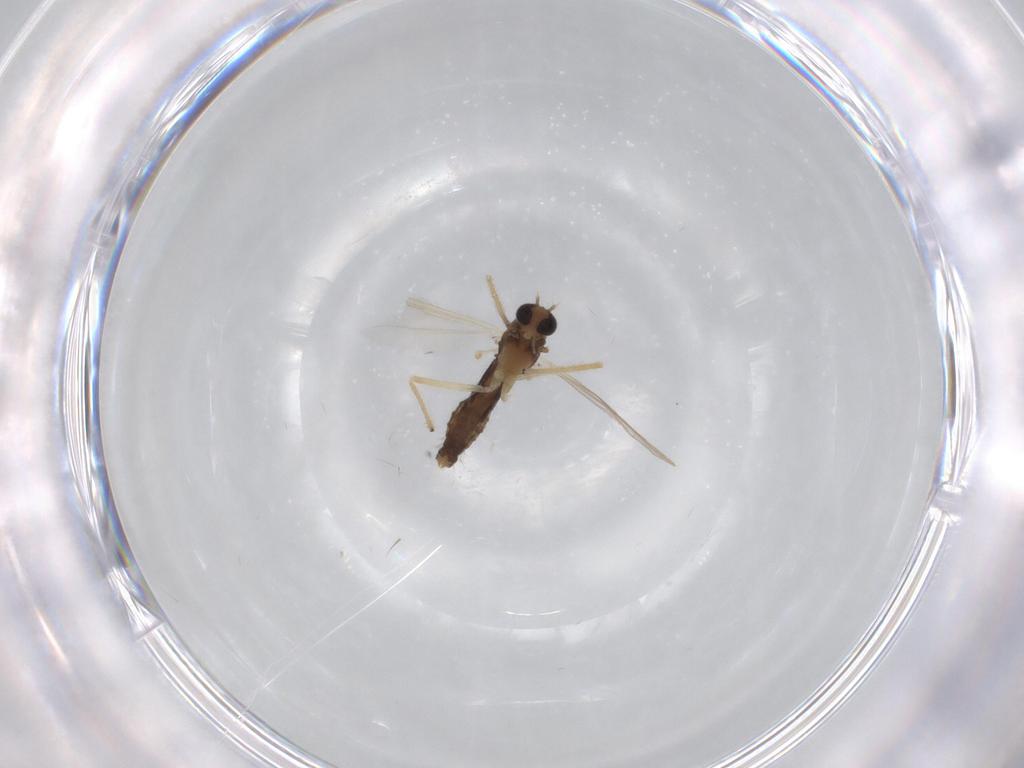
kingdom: Animalia
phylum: Arthropoda
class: Insecta
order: Diptera
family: Chironomidae
